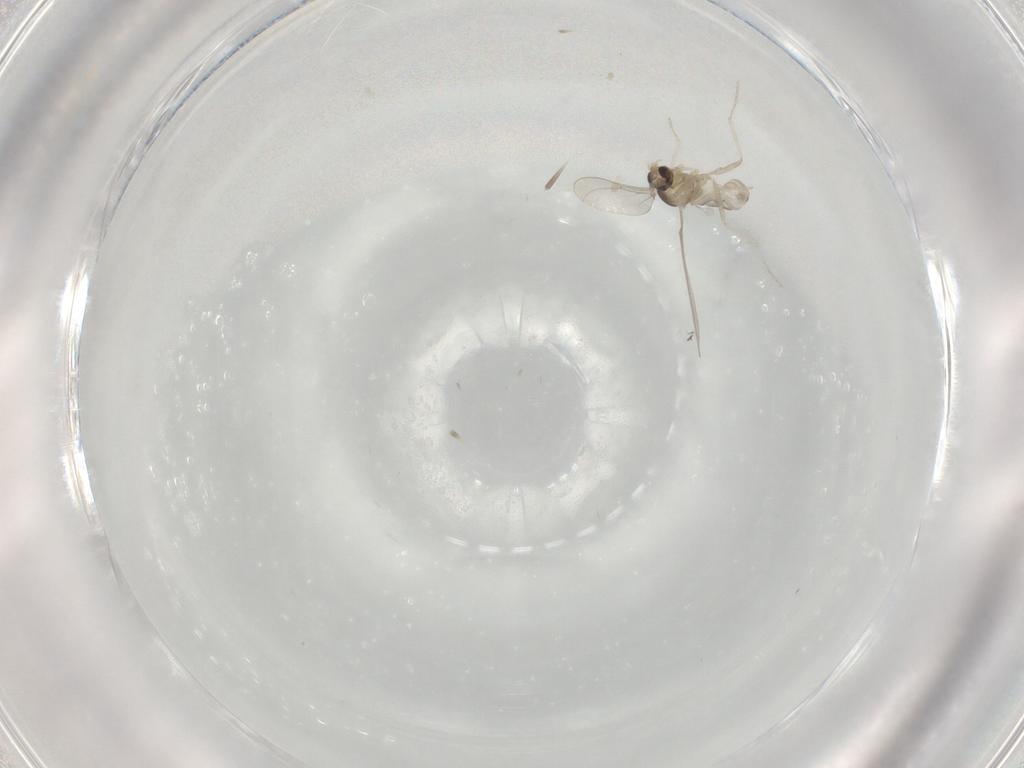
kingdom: Animalia
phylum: Arthropoda
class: Insecta
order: Diptera
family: Cecidomyiidae
